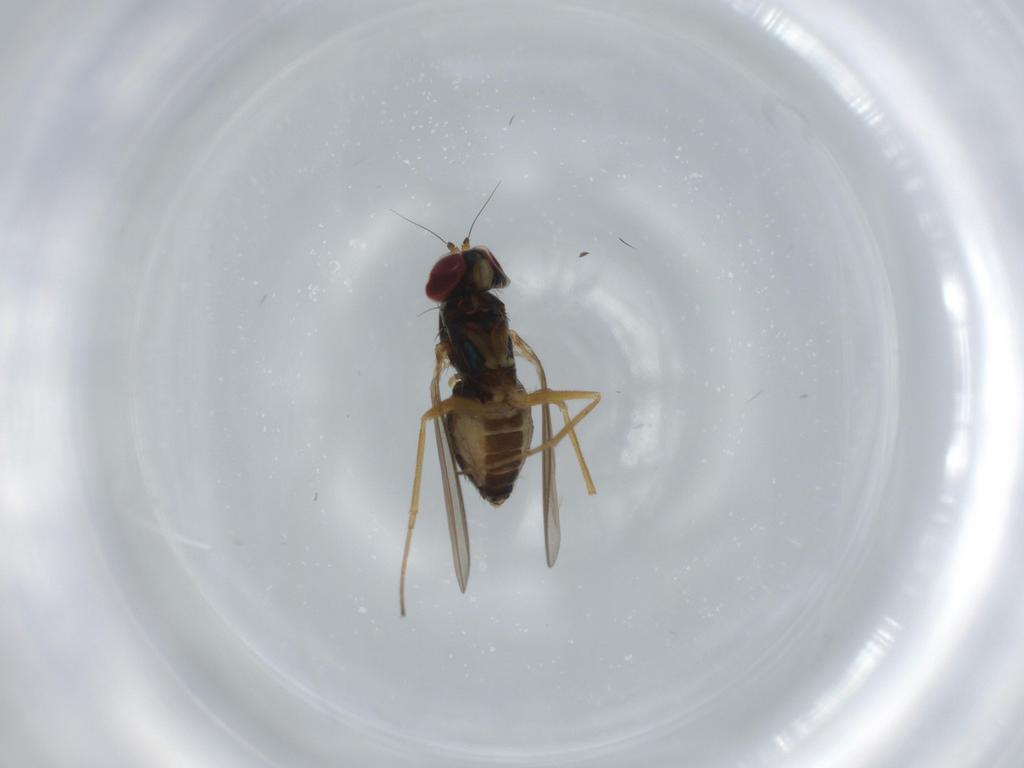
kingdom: Animalia
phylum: Arthropoda
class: Insecta
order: Diptera
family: Dolichopodidae
